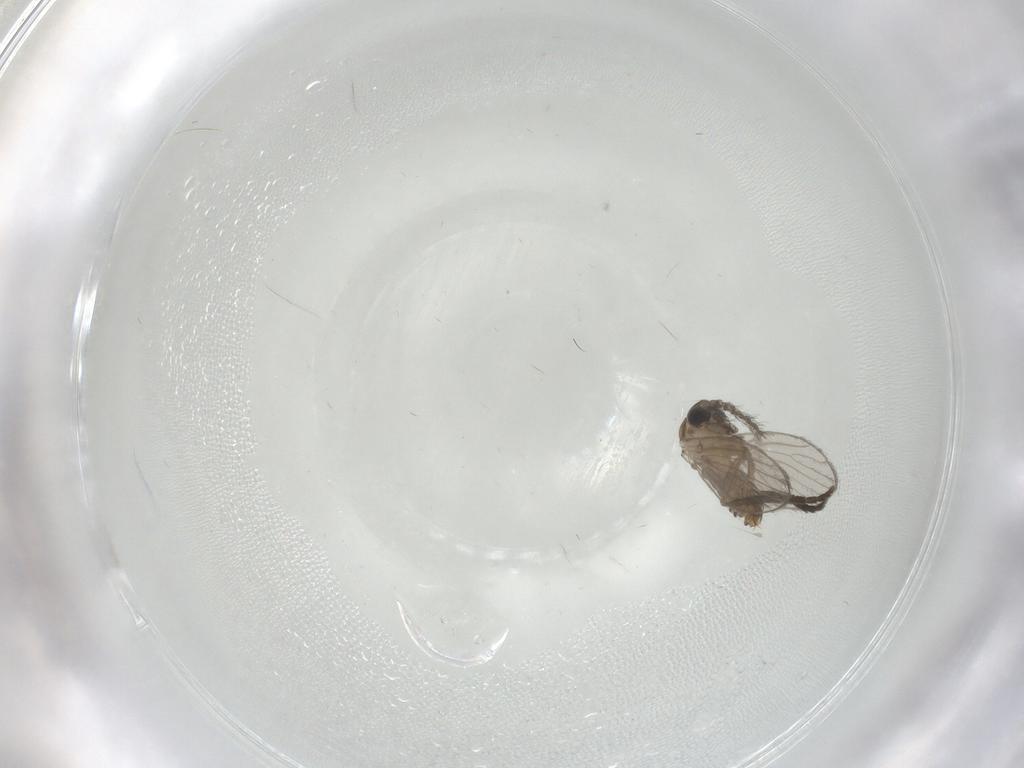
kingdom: Animalia
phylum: Arthropoda
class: Insecta
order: Diptera
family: Psychodidae
